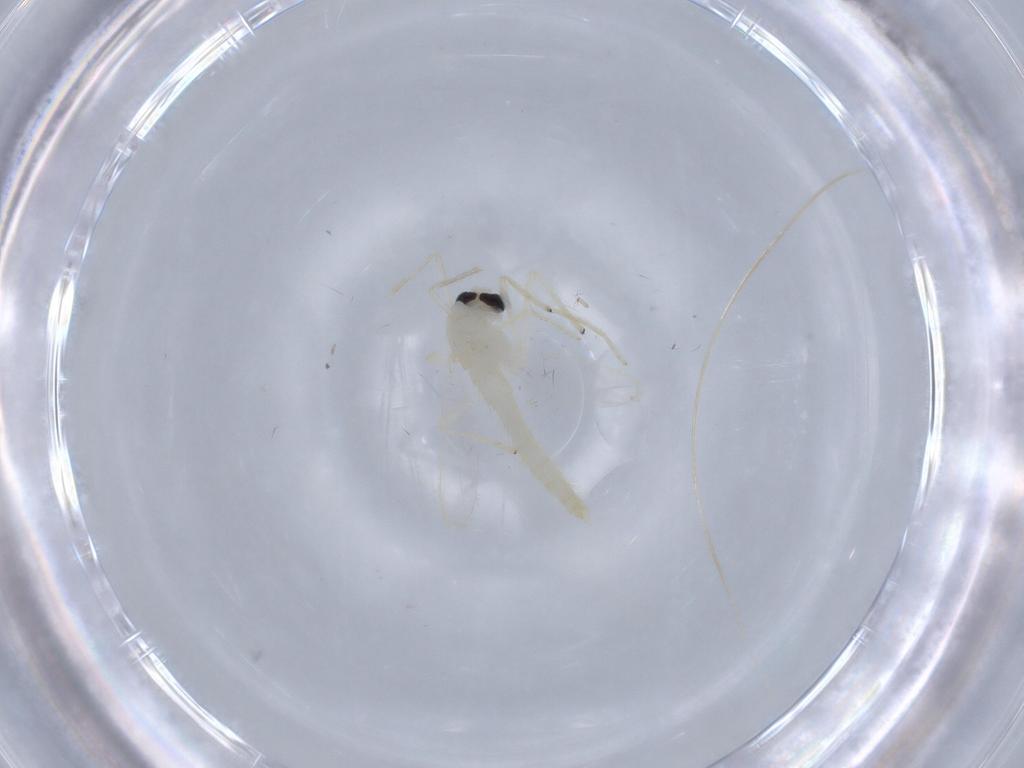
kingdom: Animalia
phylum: Arthropoda
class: Insecta
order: Diptera
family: Chironomidae
